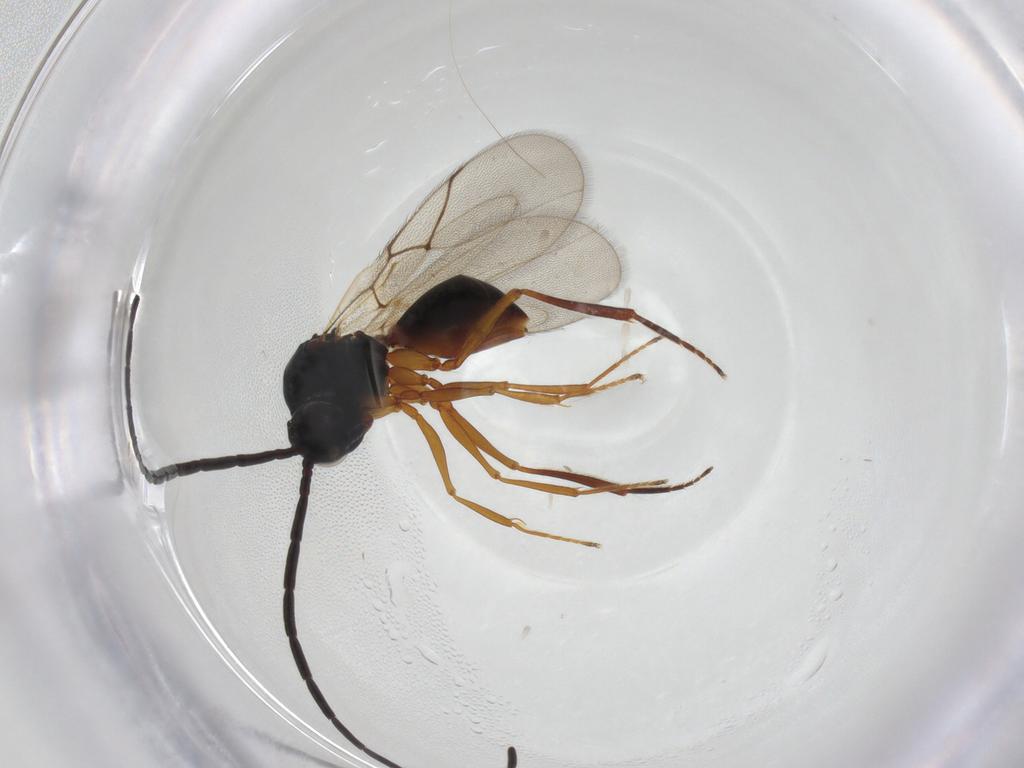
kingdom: Animalia
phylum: Arthropoda
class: Insecta
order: Hymenoptera
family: Figitidae
